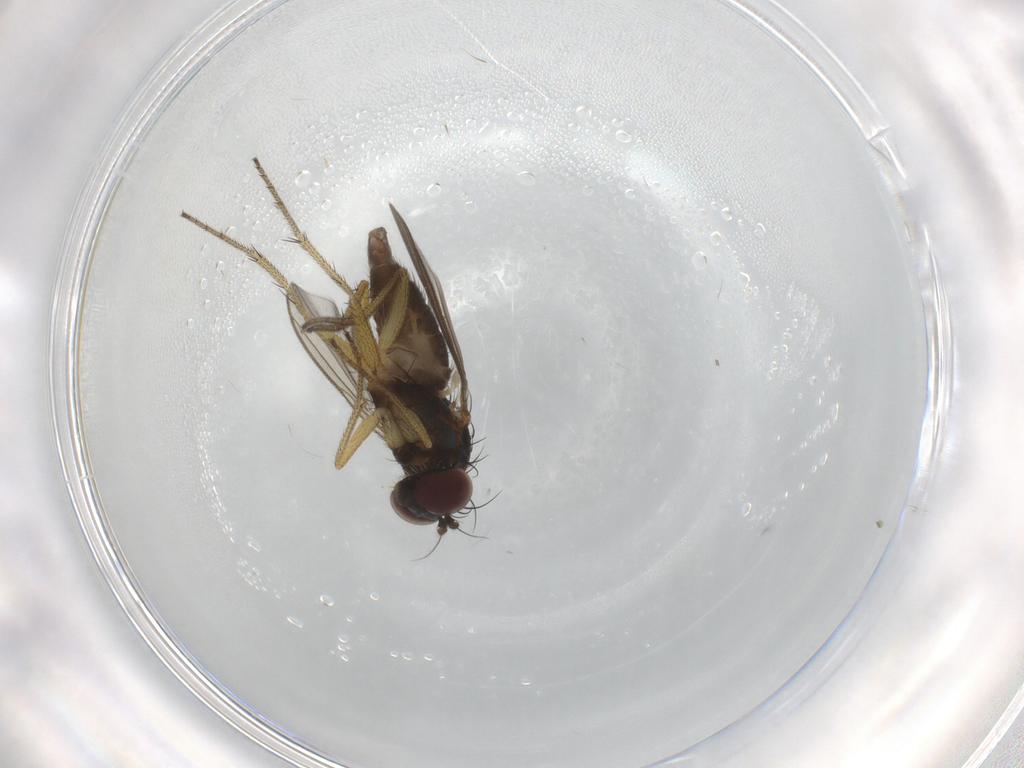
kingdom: Animalia
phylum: Arthropoda
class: Insecta
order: Diptera
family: Dolichopodidae
